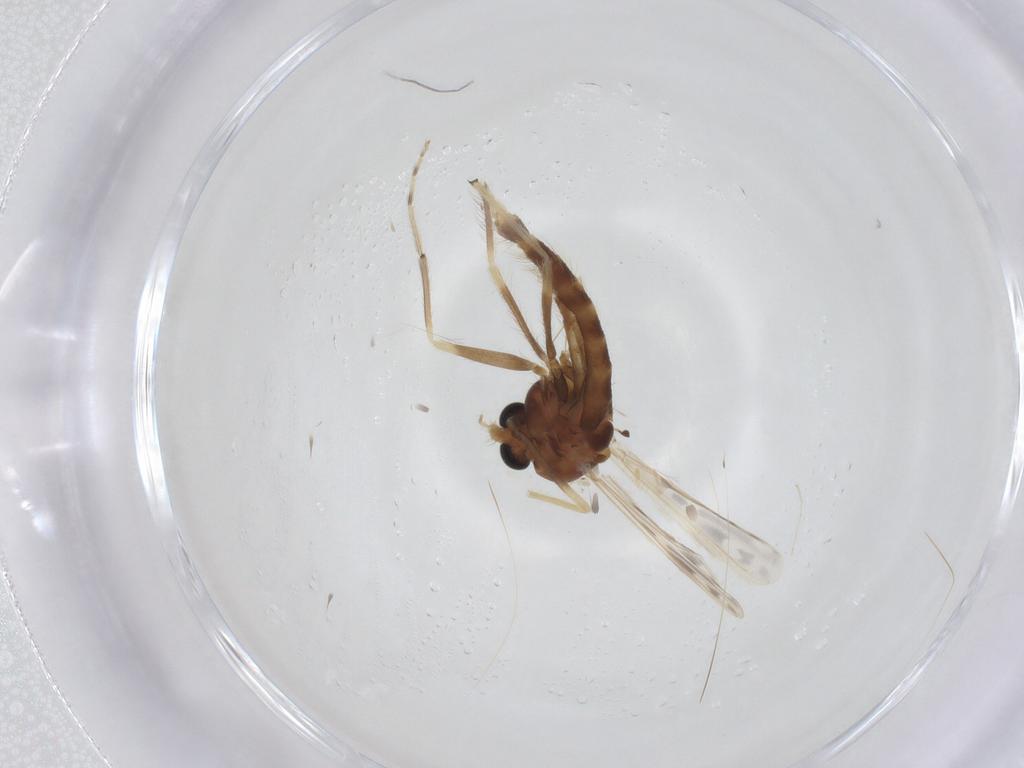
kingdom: Animalia
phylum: Arthropoda
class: Insecta
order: Diptera
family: Chironomidae
